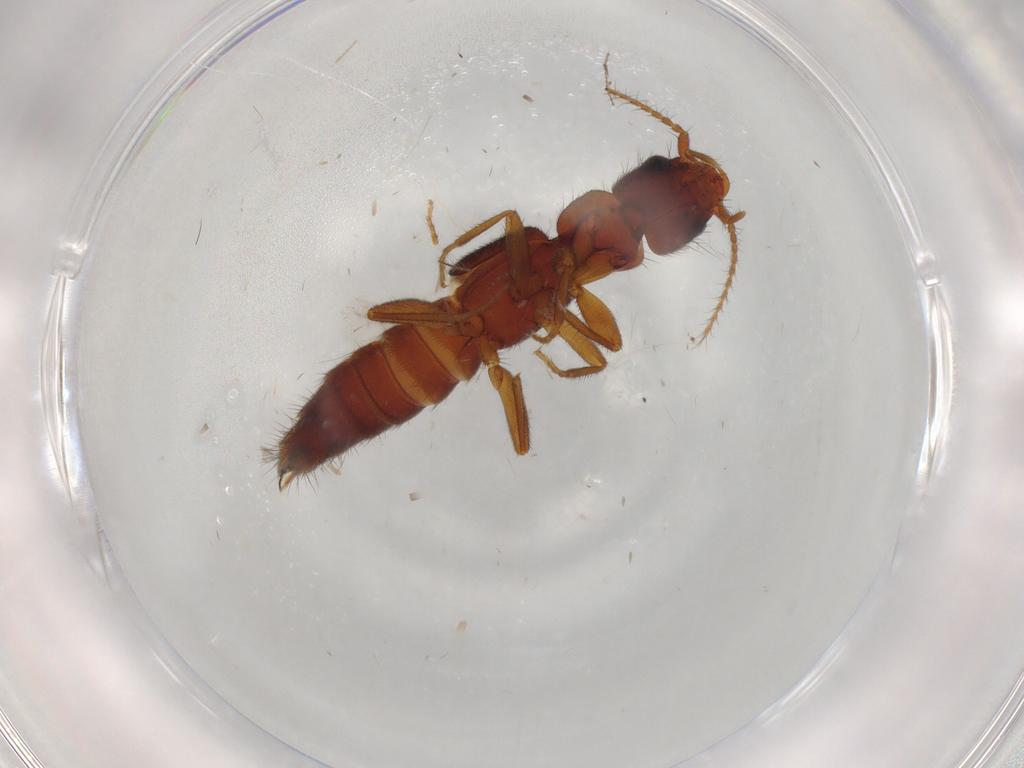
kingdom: Animalia
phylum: Arthropoda
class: Insecta
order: Coleoptera
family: Staphylinidae
